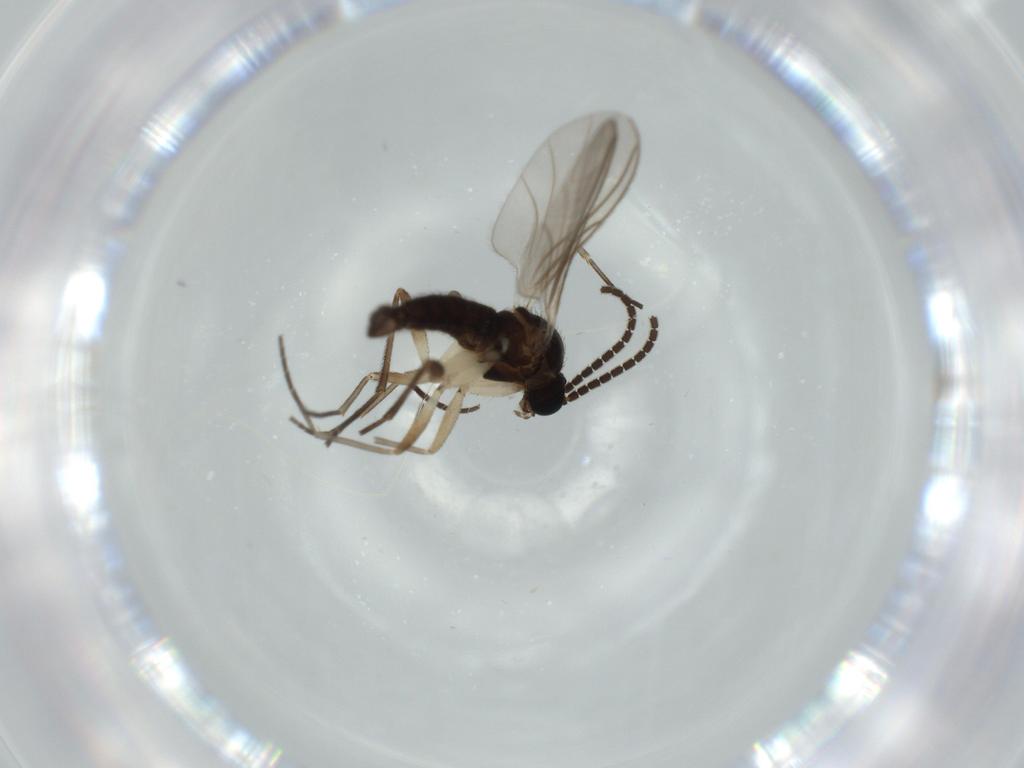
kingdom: Animalia
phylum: Arthropoda
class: Insecta
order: Diptera
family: Sciaridae
